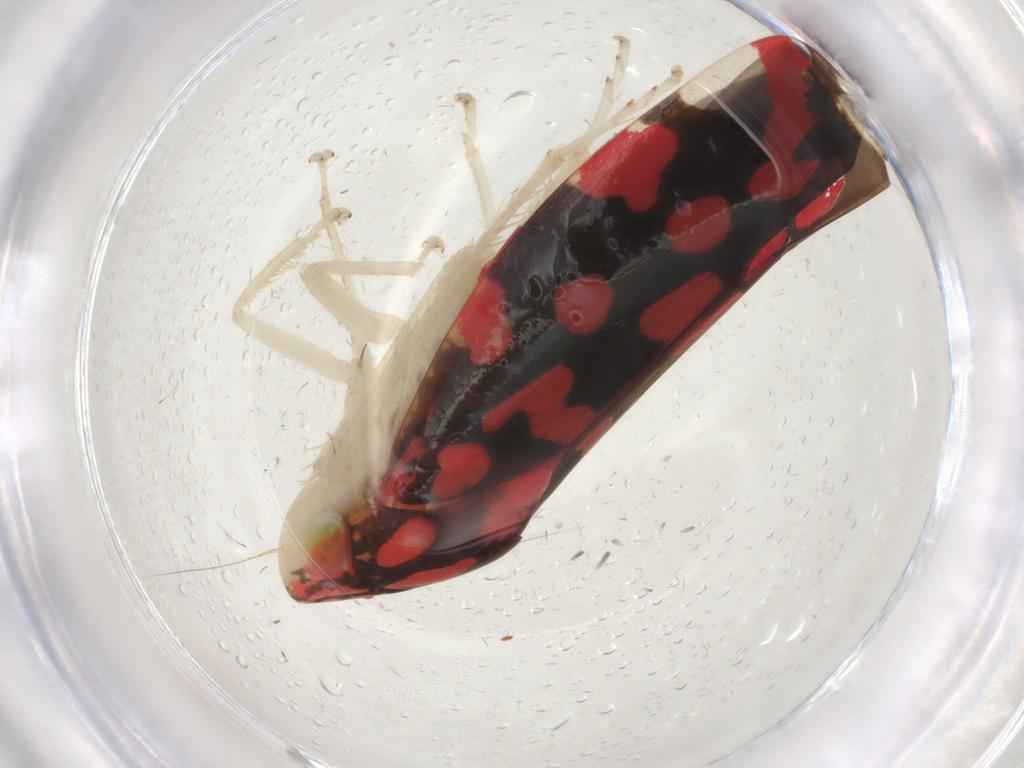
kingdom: Animalia
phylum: Arthropoda
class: Insecta
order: Hemiptera
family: Cicadellidae
